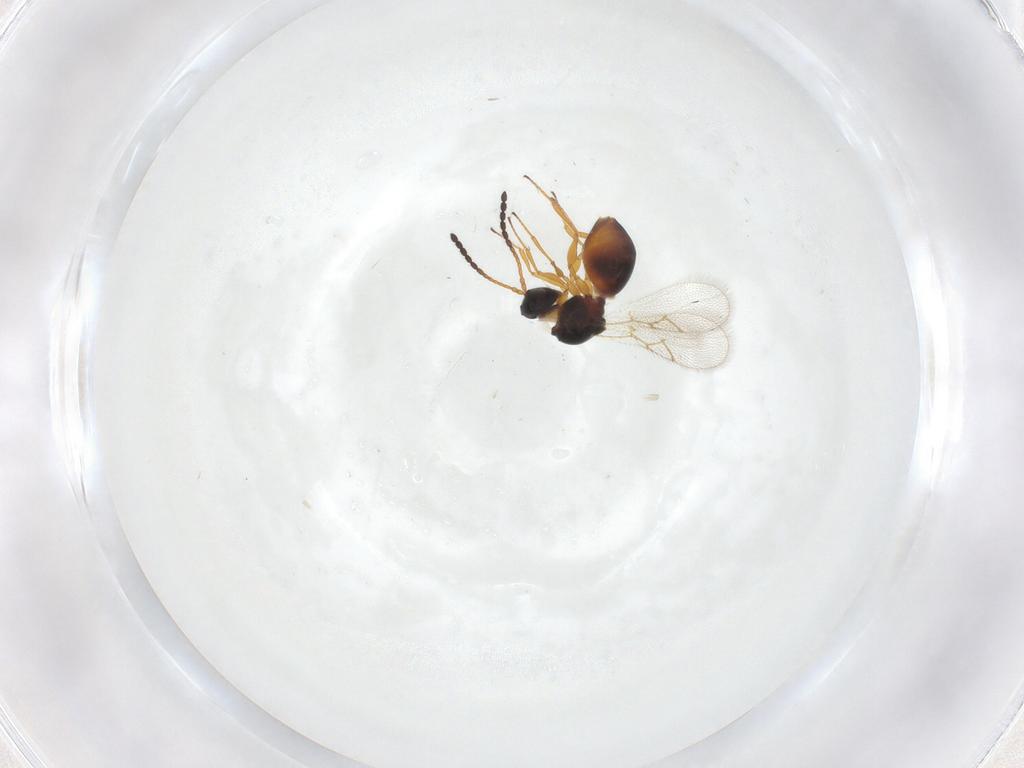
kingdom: Animalia
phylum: Arthropoda
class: Insecta
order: Hymenoptera
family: Figitidae
